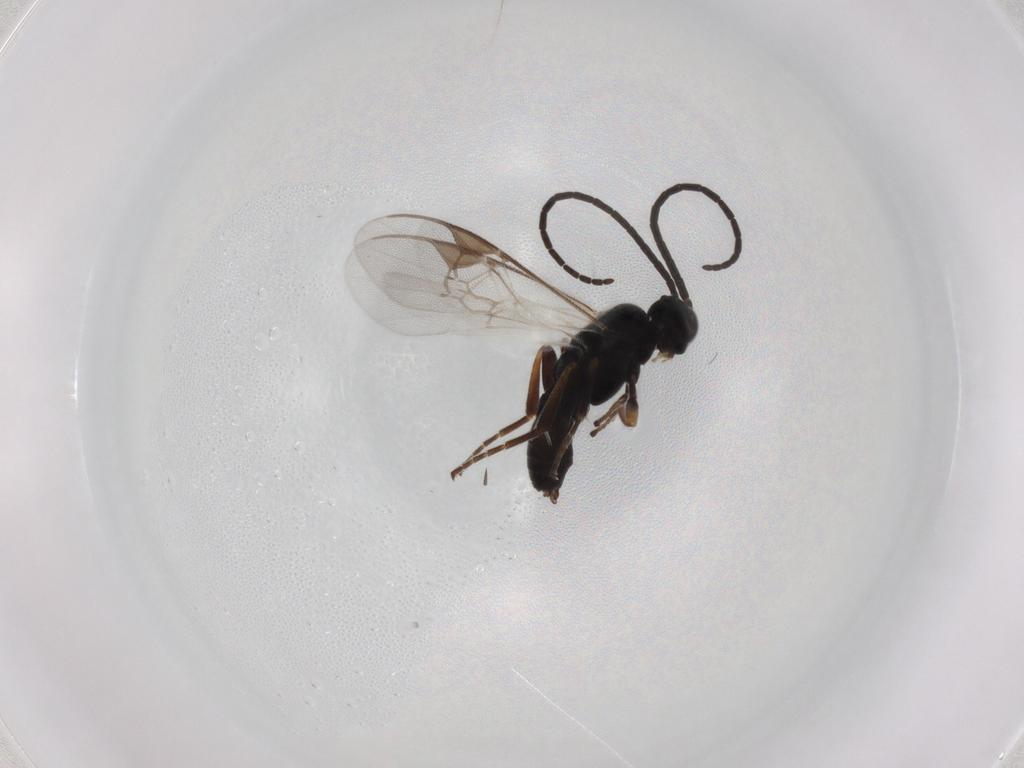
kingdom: Animalia
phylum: Arthropoda
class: Insecta
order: Hymenoptera
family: Braconidae
